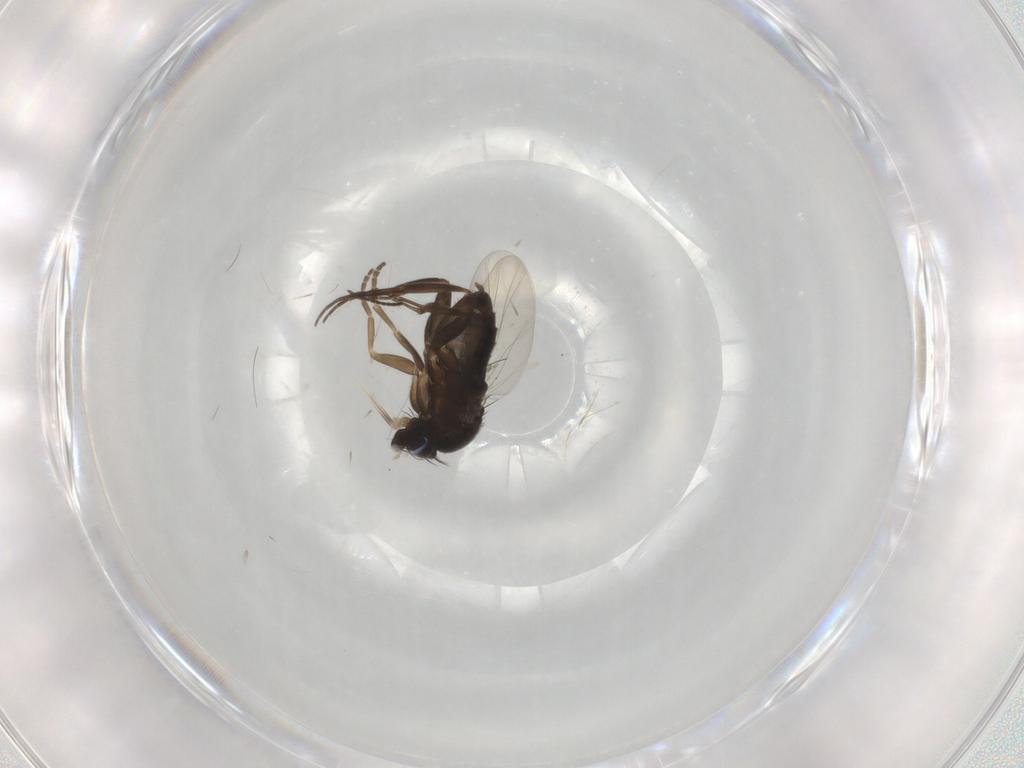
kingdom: Animalia
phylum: Arthropoda
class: Insecta
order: Diptera
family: Phoridae
